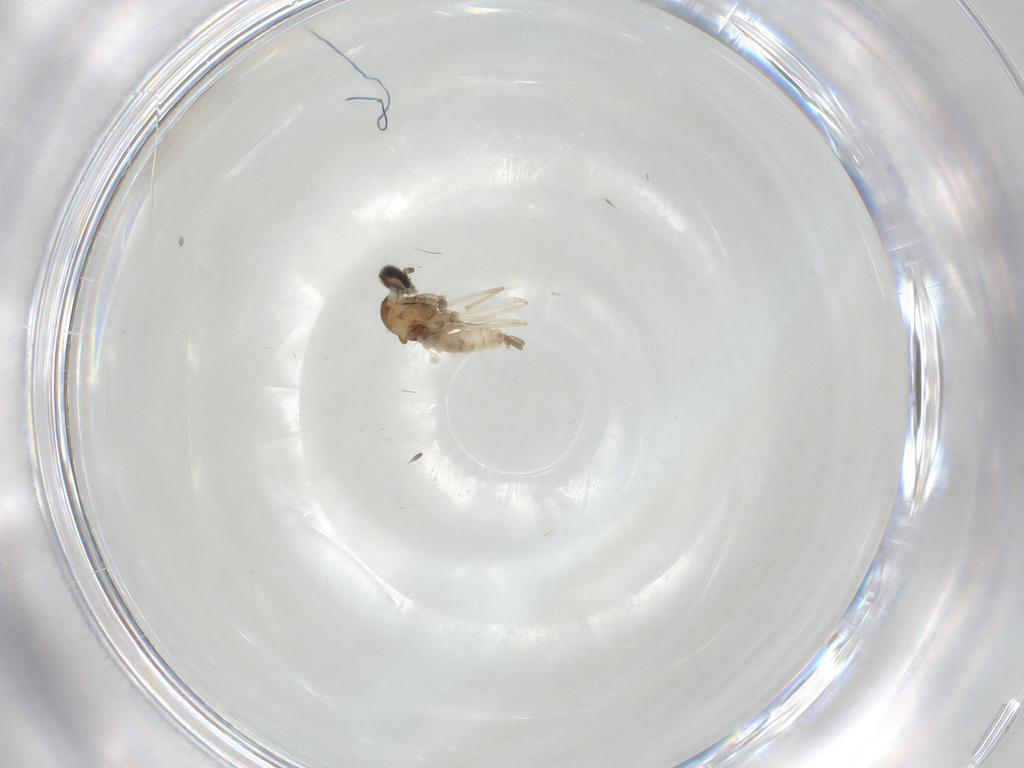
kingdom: Animalia
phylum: Arthropoda
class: Insecta
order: Diptera
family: Cecidomyiidae
